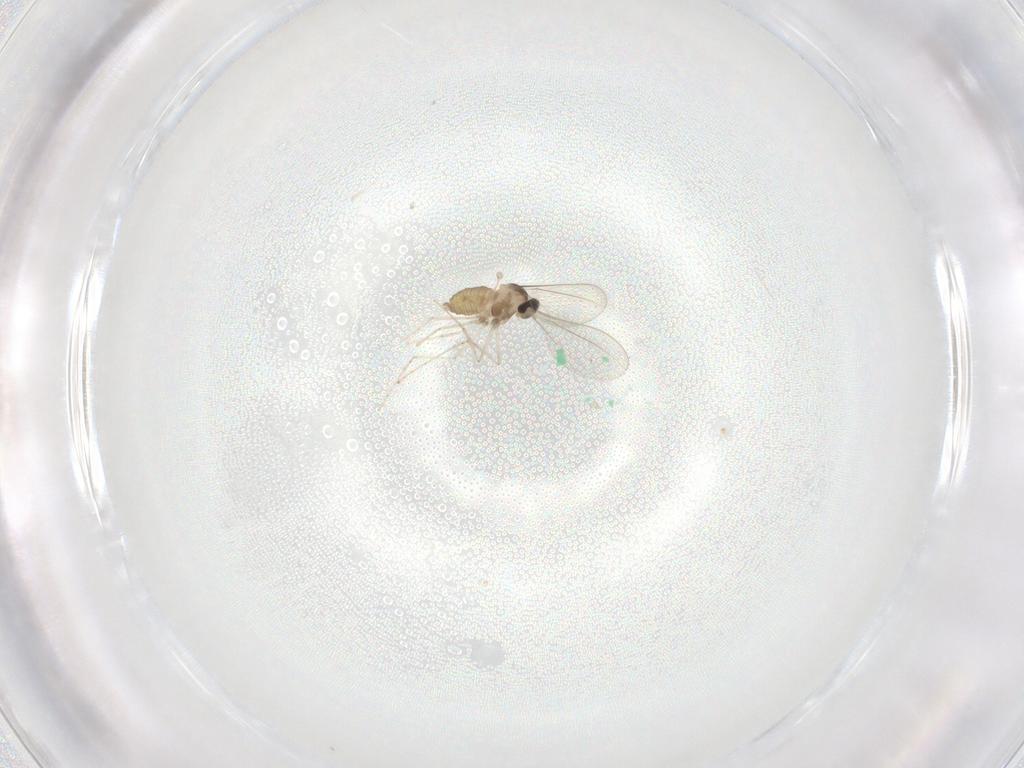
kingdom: Animalia
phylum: Arthropoda
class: Insecta
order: Diptera
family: Cecidomyiidae
